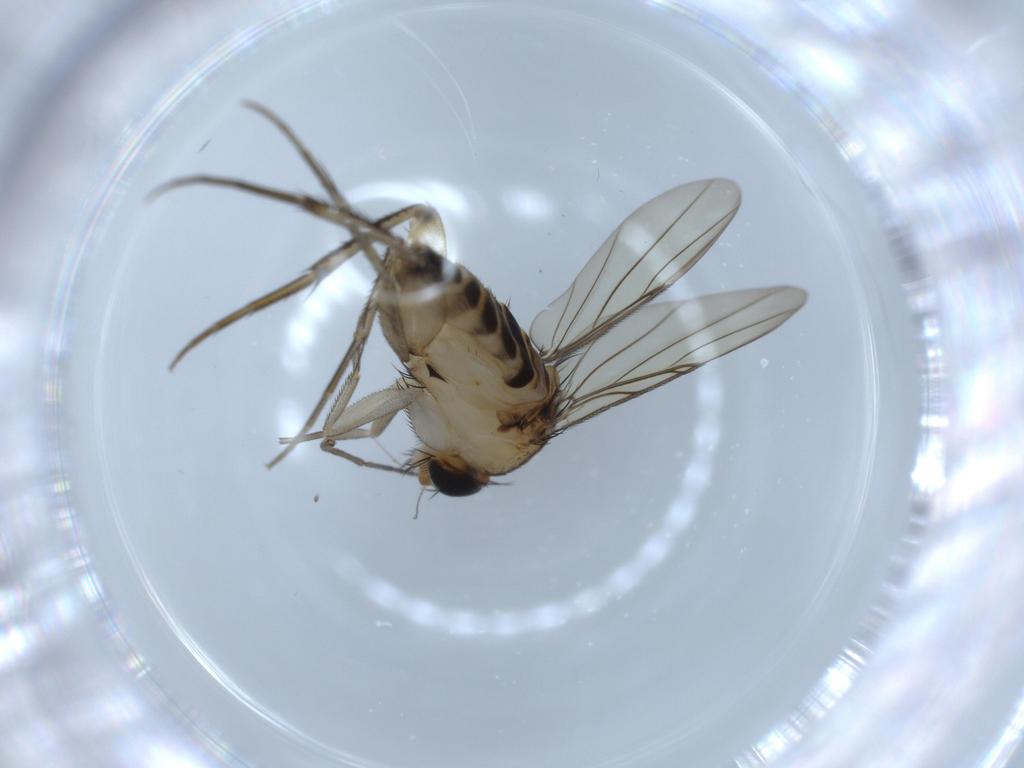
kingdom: Animalia
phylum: Arthropoda
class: Insecta
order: Diptera
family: Phoridae
